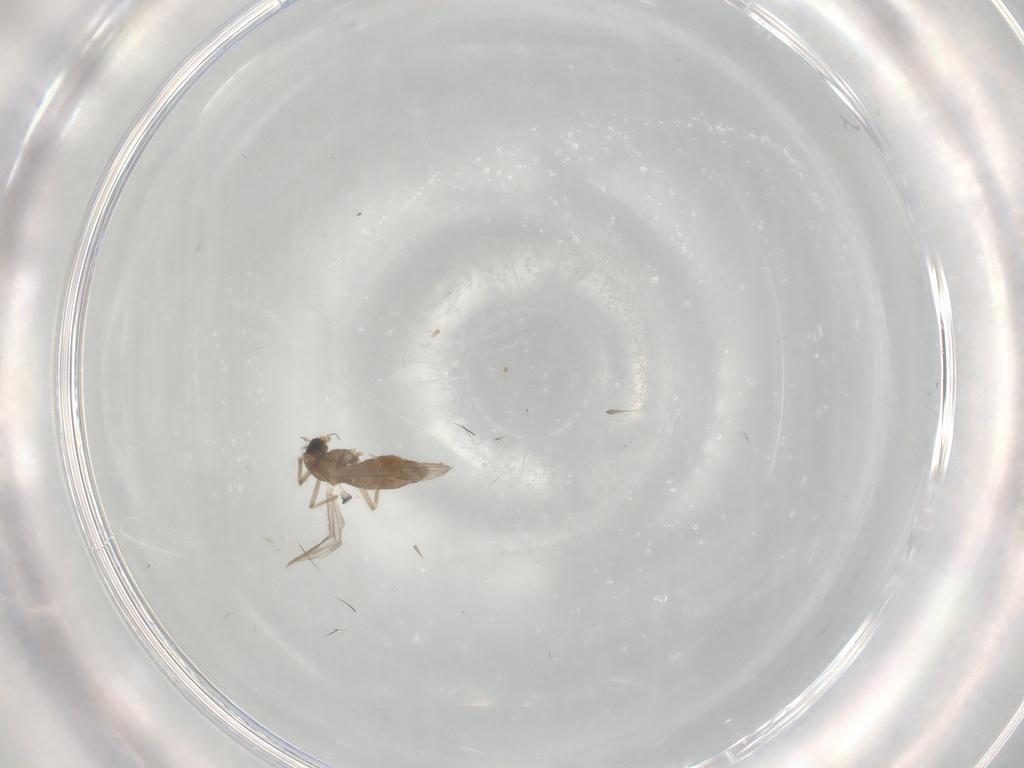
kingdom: Animalia
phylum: Arthropoda
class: Insecta
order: Diptera
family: Chironomidae
